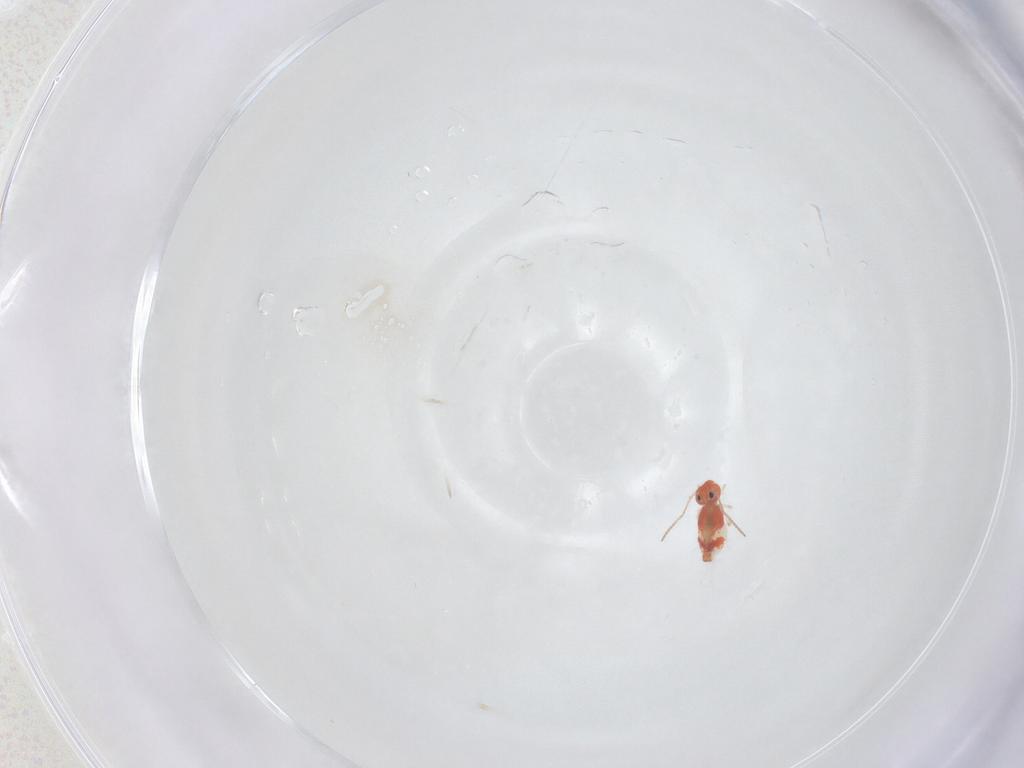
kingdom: Animalia
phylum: Arthropoda
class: Collembola
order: Symphypleona
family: Bourletiellidae
